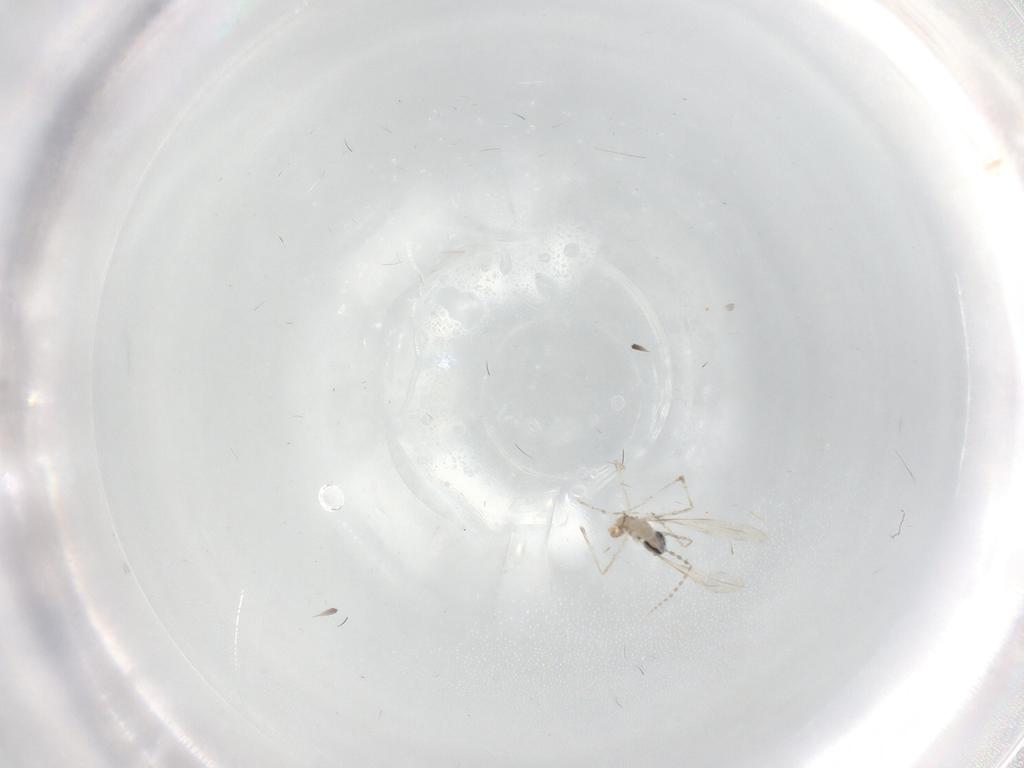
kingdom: Animalia
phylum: Arthropoda
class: Insecta
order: Diptera
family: Cecidomyiidae
